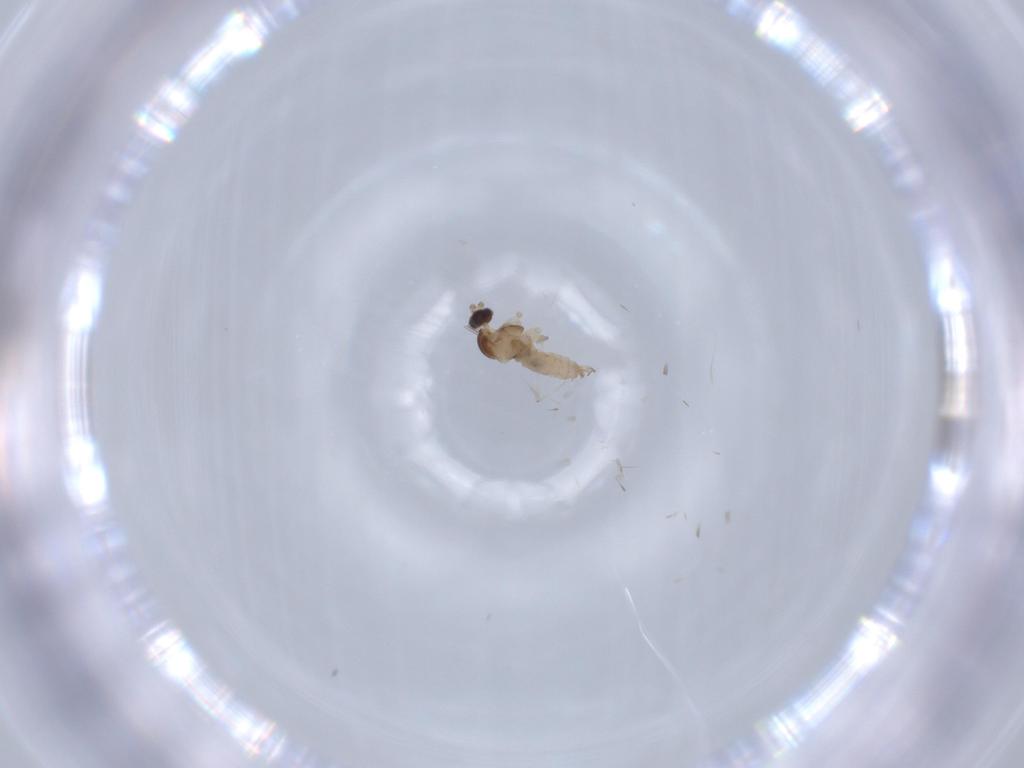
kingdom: Animalia
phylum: Arthropoda
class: Insecta
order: Diptera
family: Cecidomyiidae
